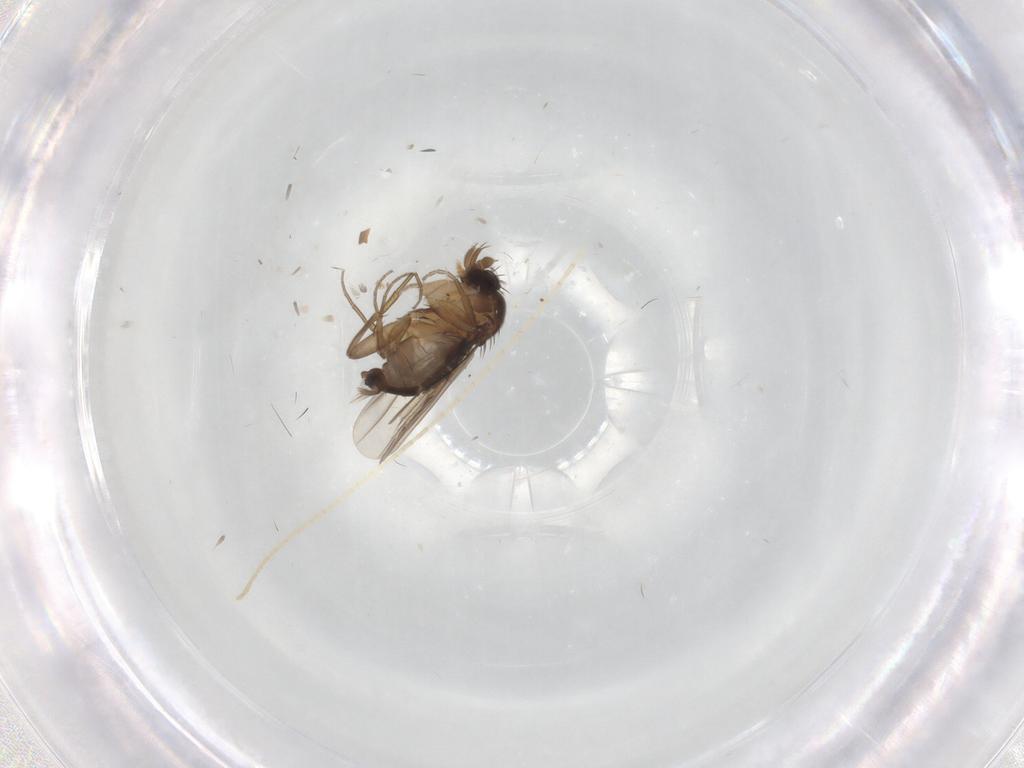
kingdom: Animalia
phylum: Arthropoda
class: Insecta
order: Diptera
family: Phoridae
